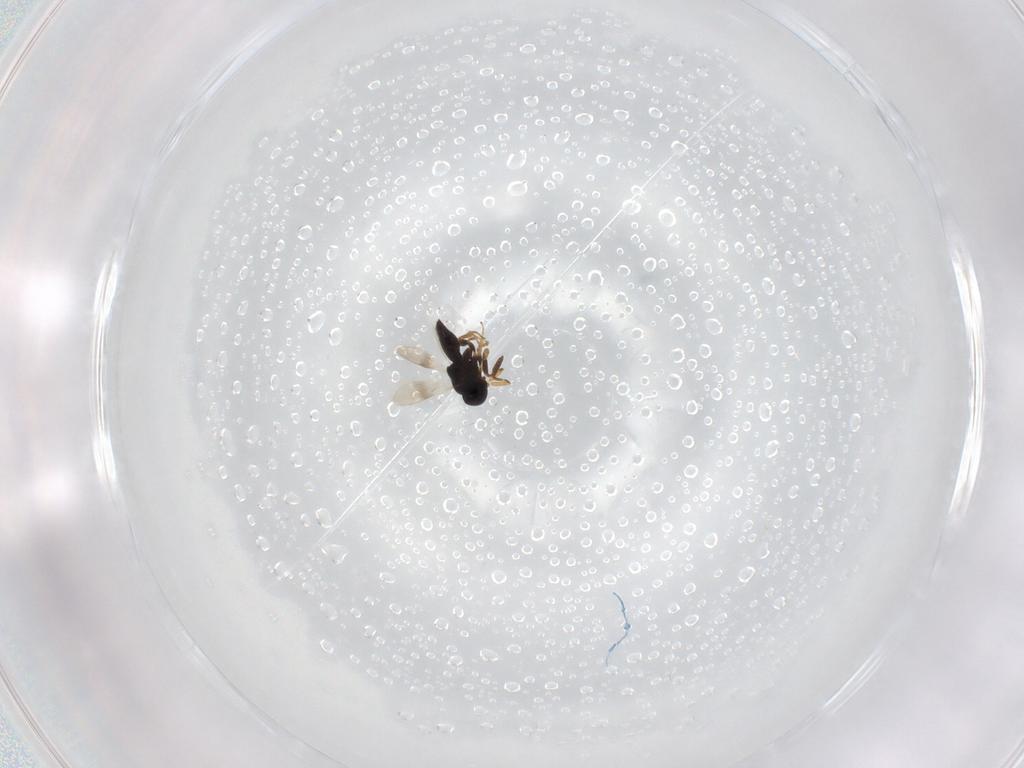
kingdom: Animalia
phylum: Arthropoda
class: Insecta
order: Hymenoptera
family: Scelionidae
